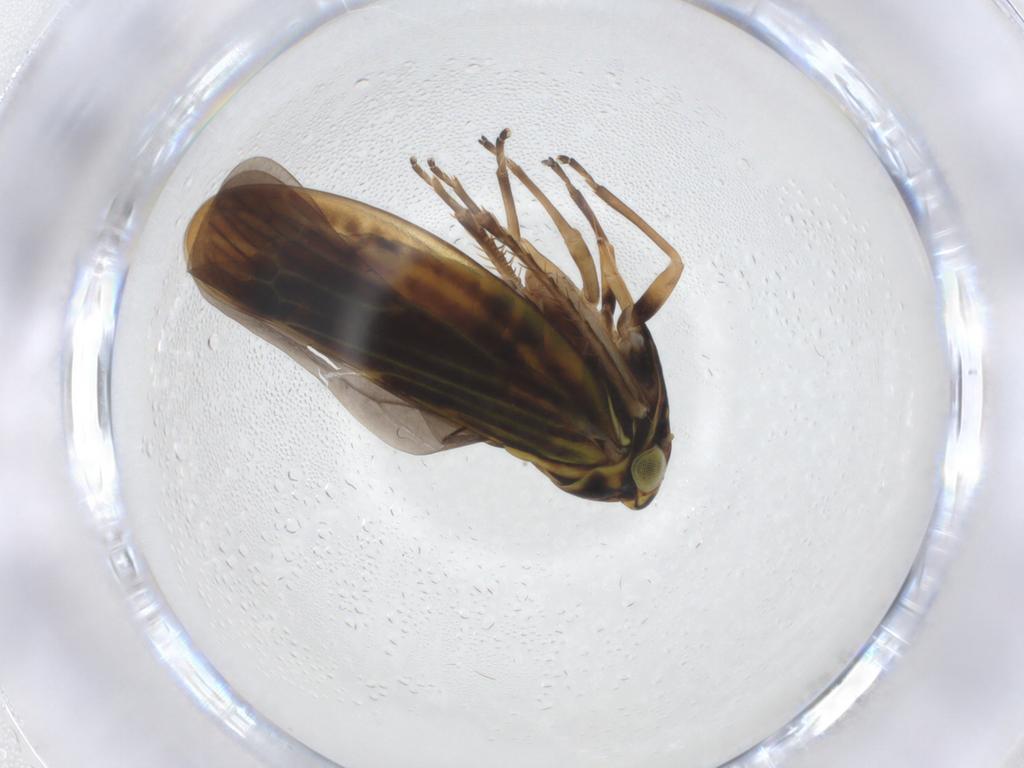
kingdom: Animalia
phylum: Arthropoda
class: Insecta
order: Hemiptera
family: Cicadellidae
